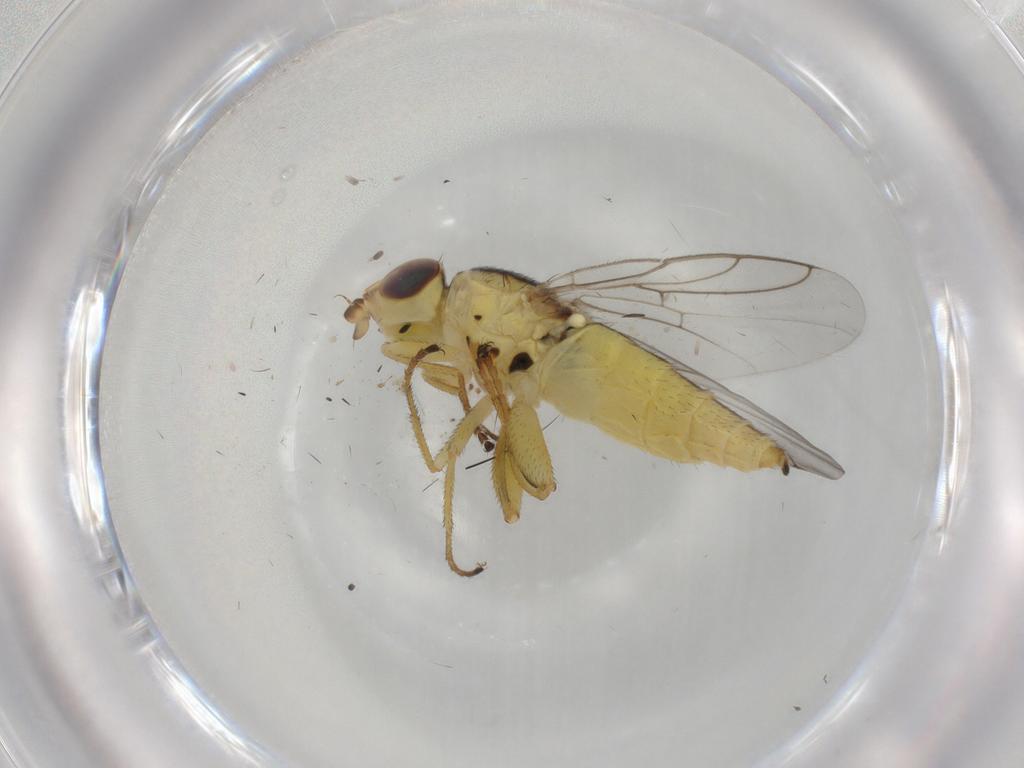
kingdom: Animalia
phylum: Arthropoda
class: Insecta
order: Diptera
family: Chloropidae
